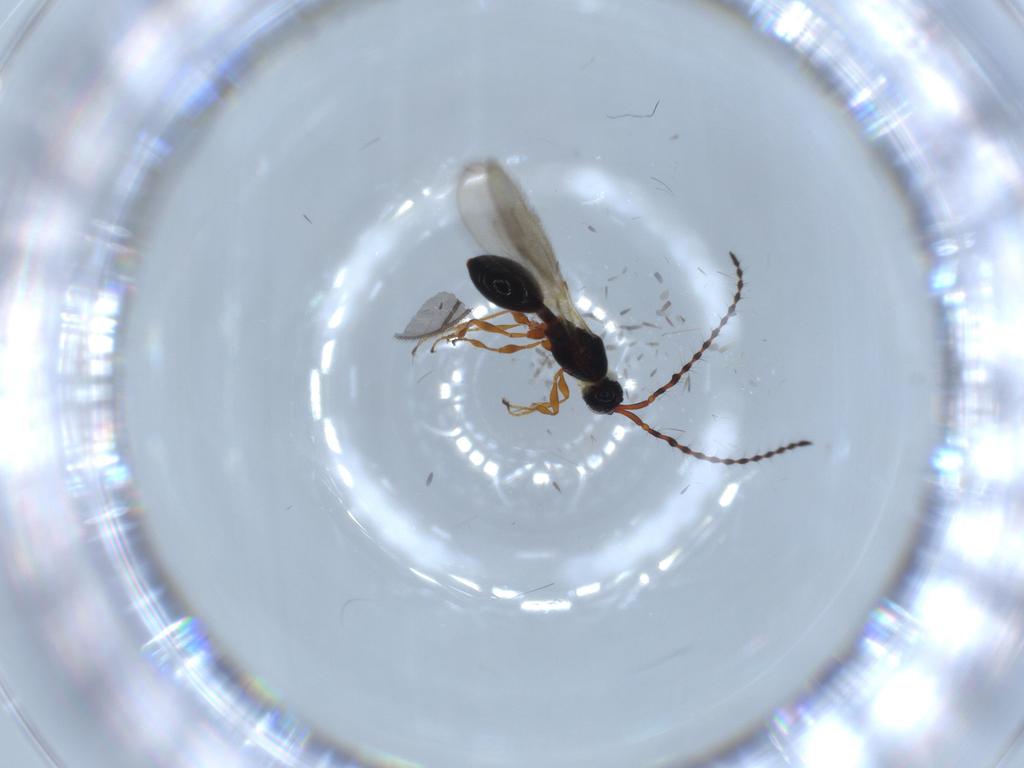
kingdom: Animalia
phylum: Arthropoda
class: Insecta
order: Hymenoptera
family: Diapriidae
